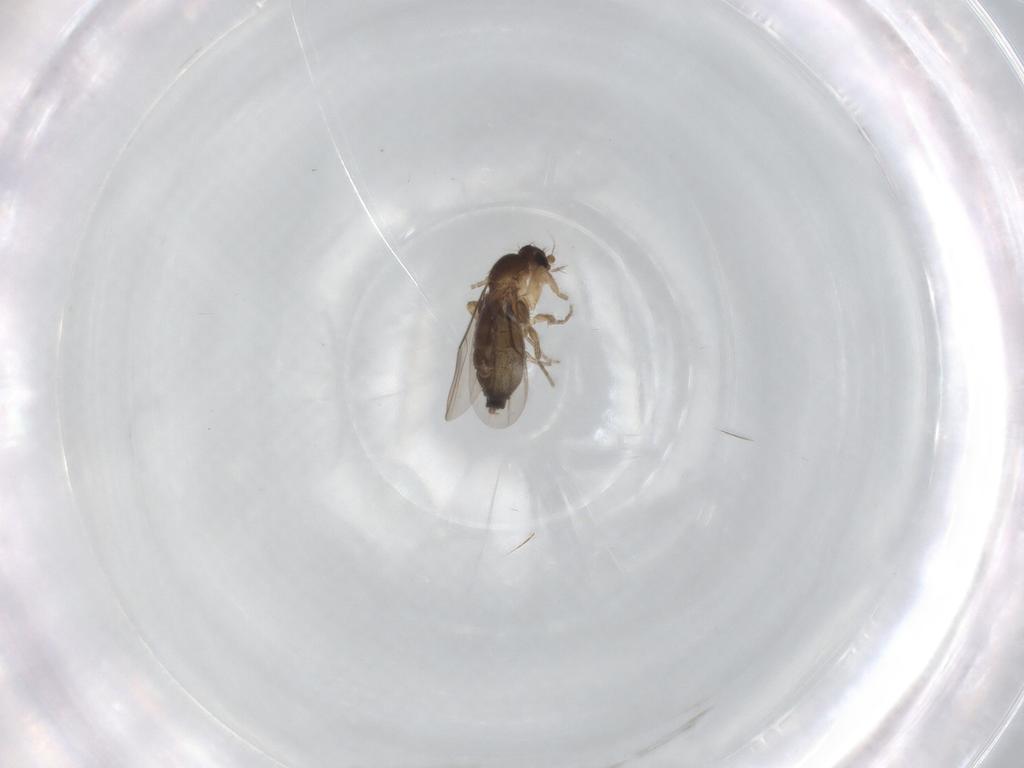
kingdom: Animalia
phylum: Arthropoda
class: Insecta
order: Diptera
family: Phoridae
